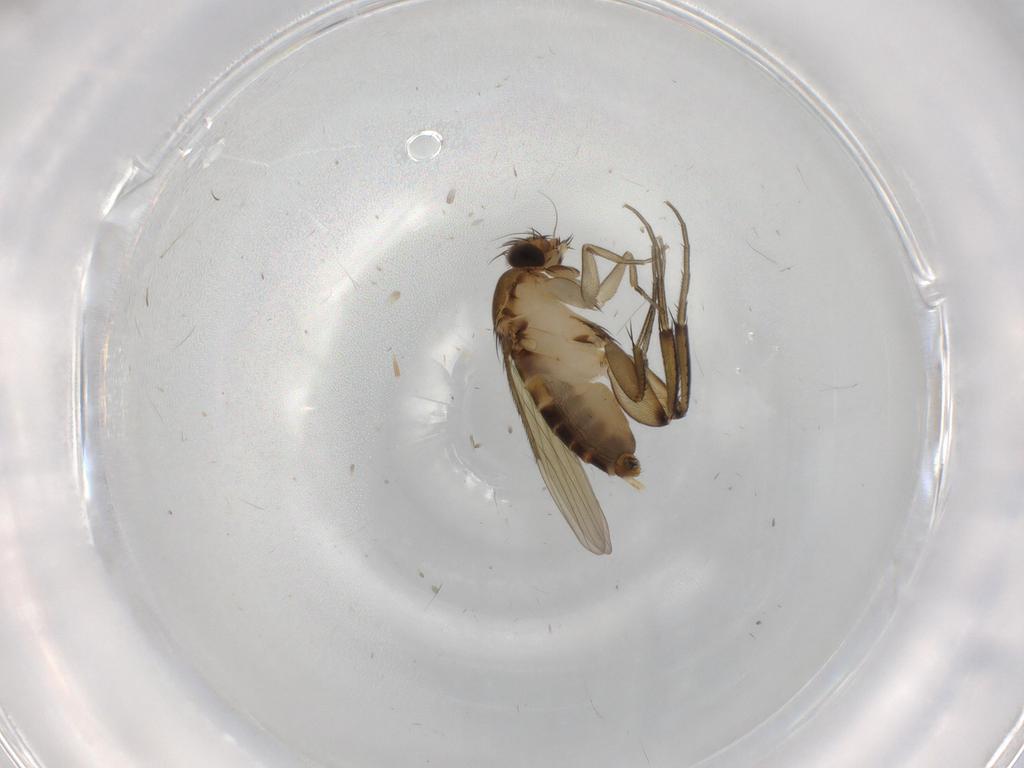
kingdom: Animalia
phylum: Arthropoda
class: Insecta
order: Diptera
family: Phoridae
